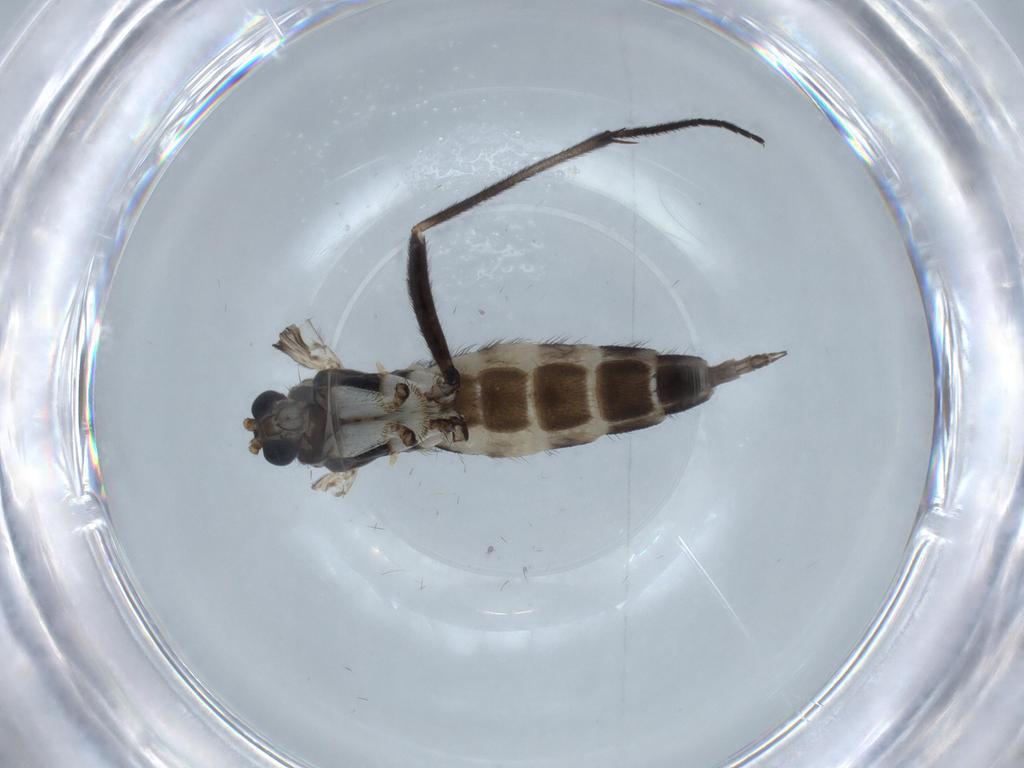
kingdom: Animalia
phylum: Arthropoda
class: Insecta
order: Diptera
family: Sciaridae
